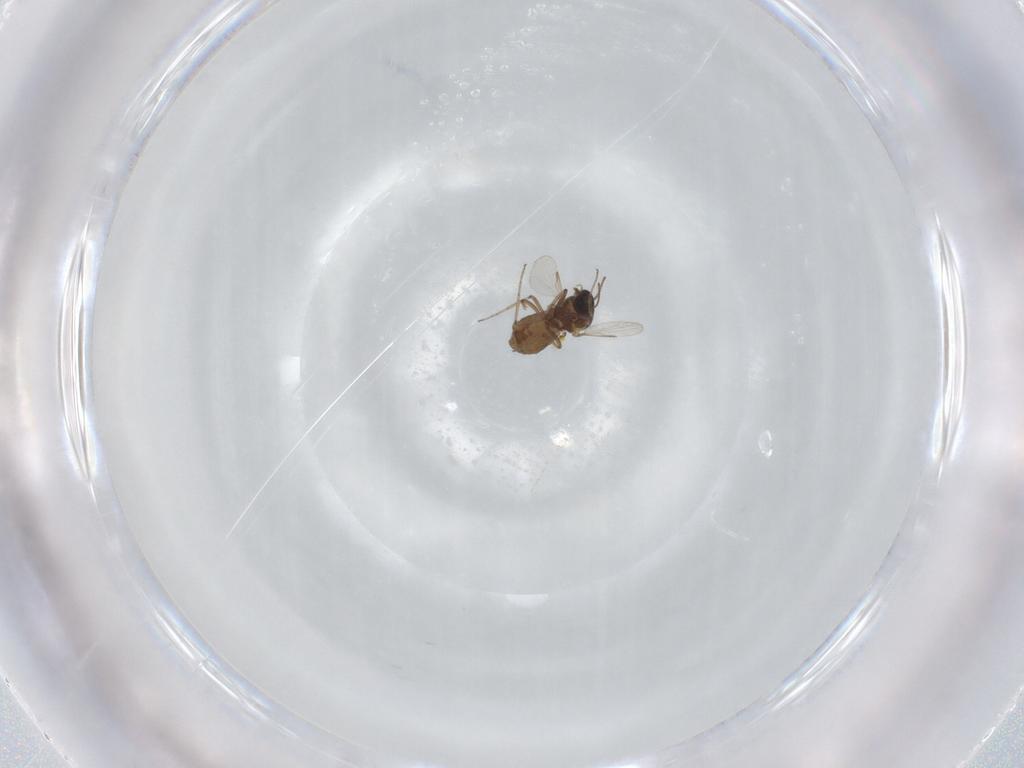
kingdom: Animalia
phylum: Arthropoda
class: Insecta
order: Diptera
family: Ceratopogonidae
